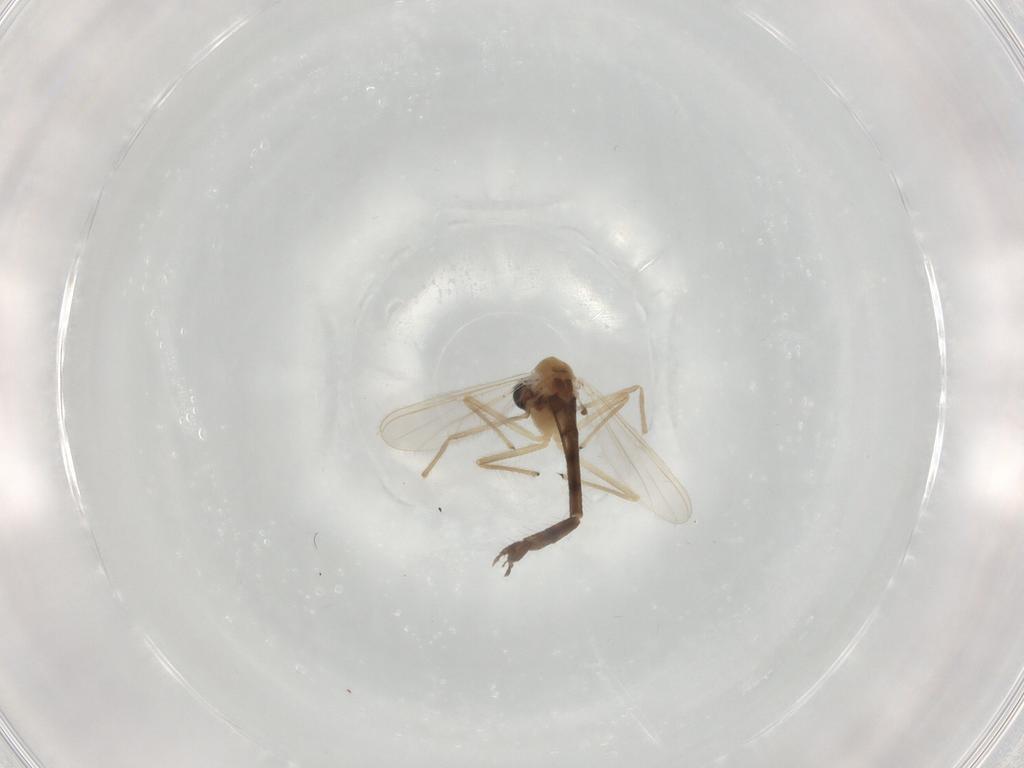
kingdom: Animalia
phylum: Arthropoda
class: Insecta
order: Diptera
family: Chironomidae
